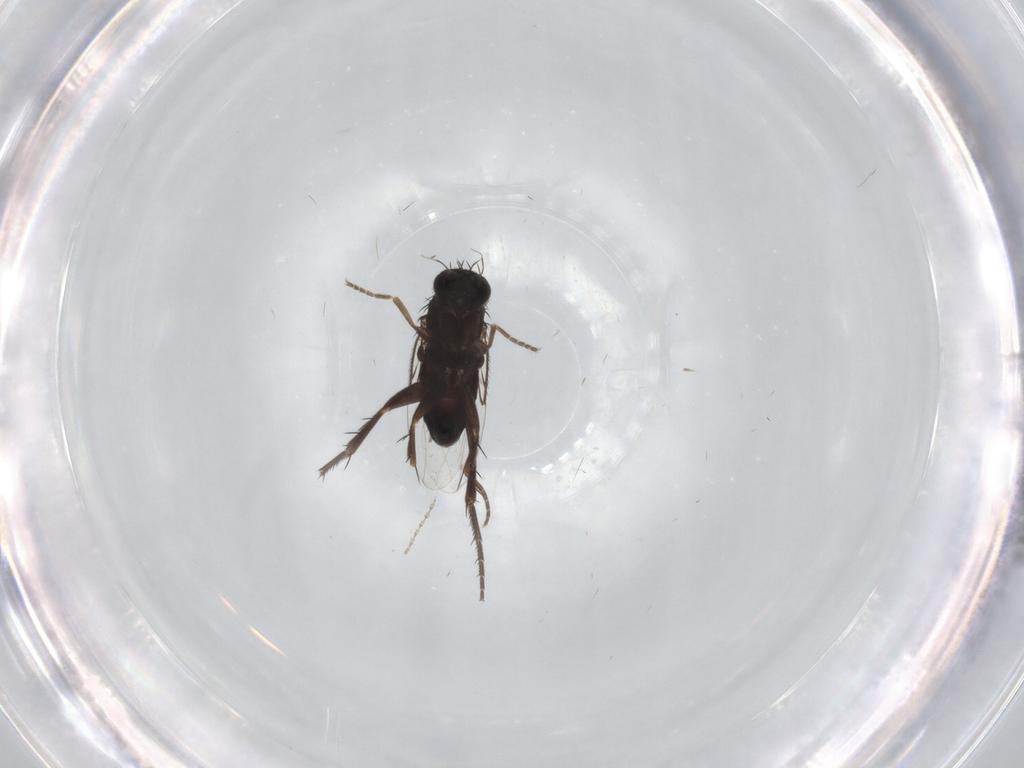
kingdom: Animalia
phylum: Arthropoda
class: Insecta
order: Diptera
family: Phoridae
